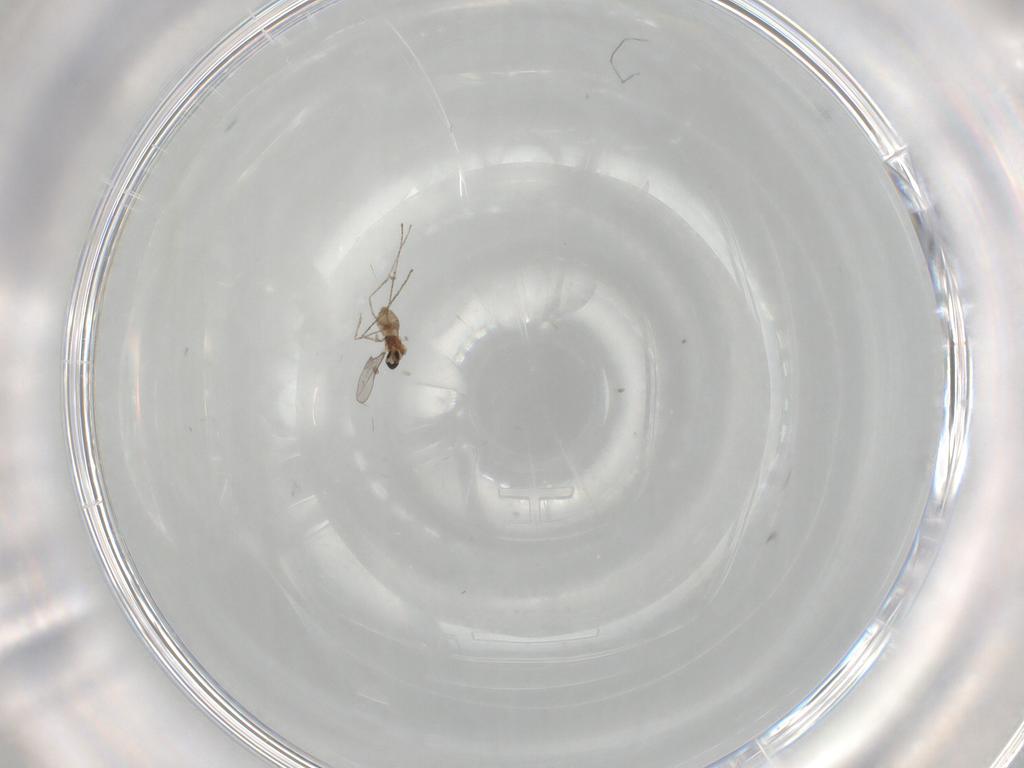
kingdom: Animalia
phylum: Arthropoda
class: Insecta
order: Diptera
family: Cecidomyiidae
